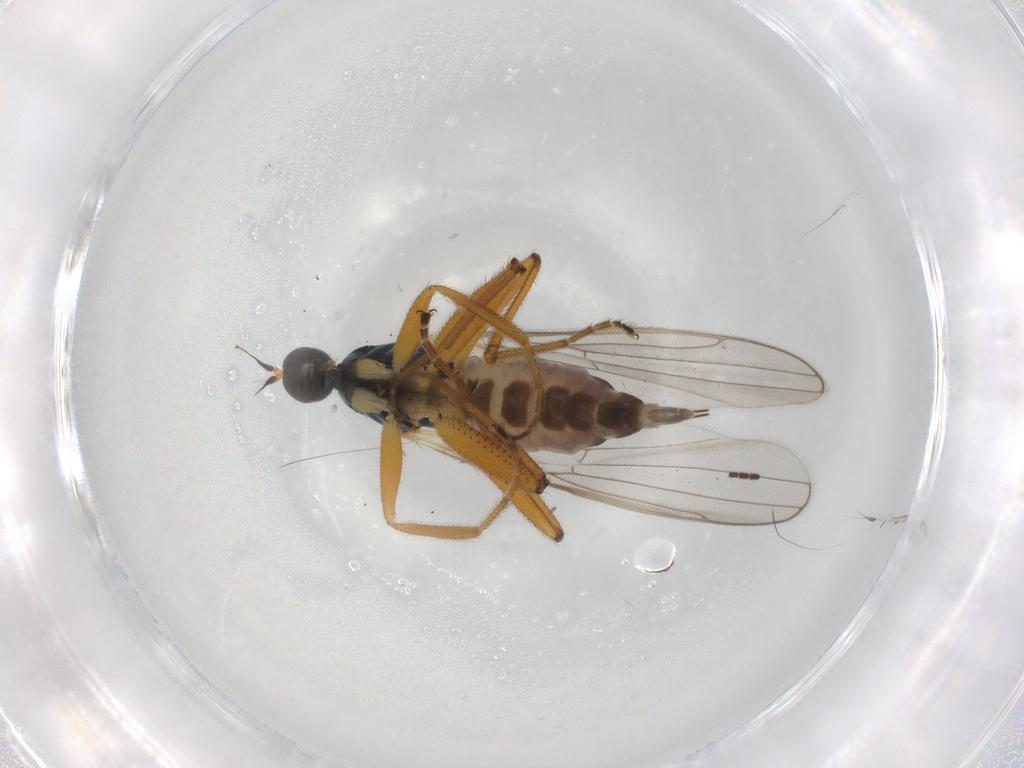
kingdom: Animalia
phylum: Arthropoda
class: Insecta
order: Diptera
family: Hybotidae
